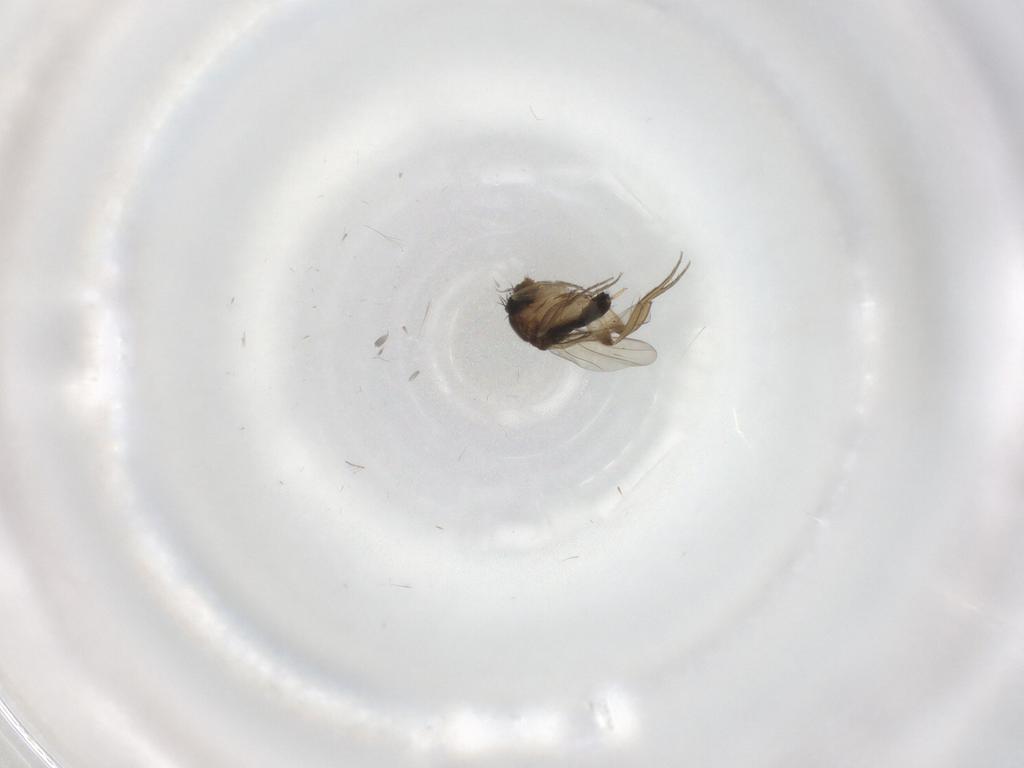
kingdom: Animalia
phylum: Arthropoda
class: Insecta
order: Diptera
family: Phoridae
